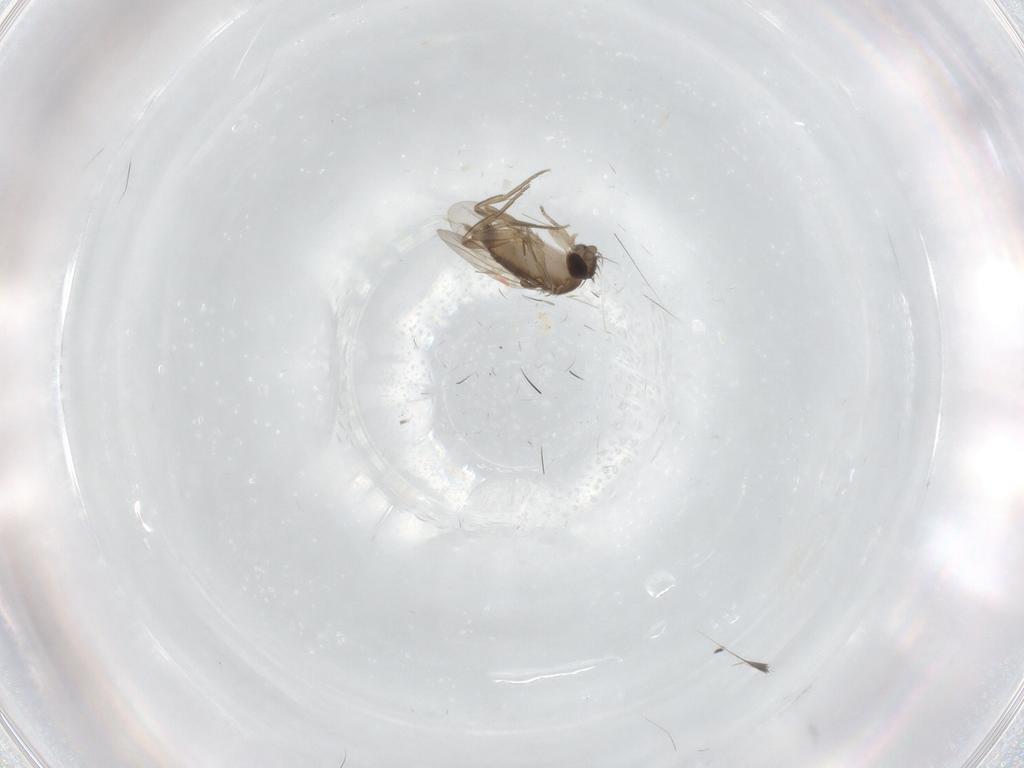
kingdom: Animalia
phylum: Arthropoda
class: Insecta
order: Diptera
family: Phoridae
